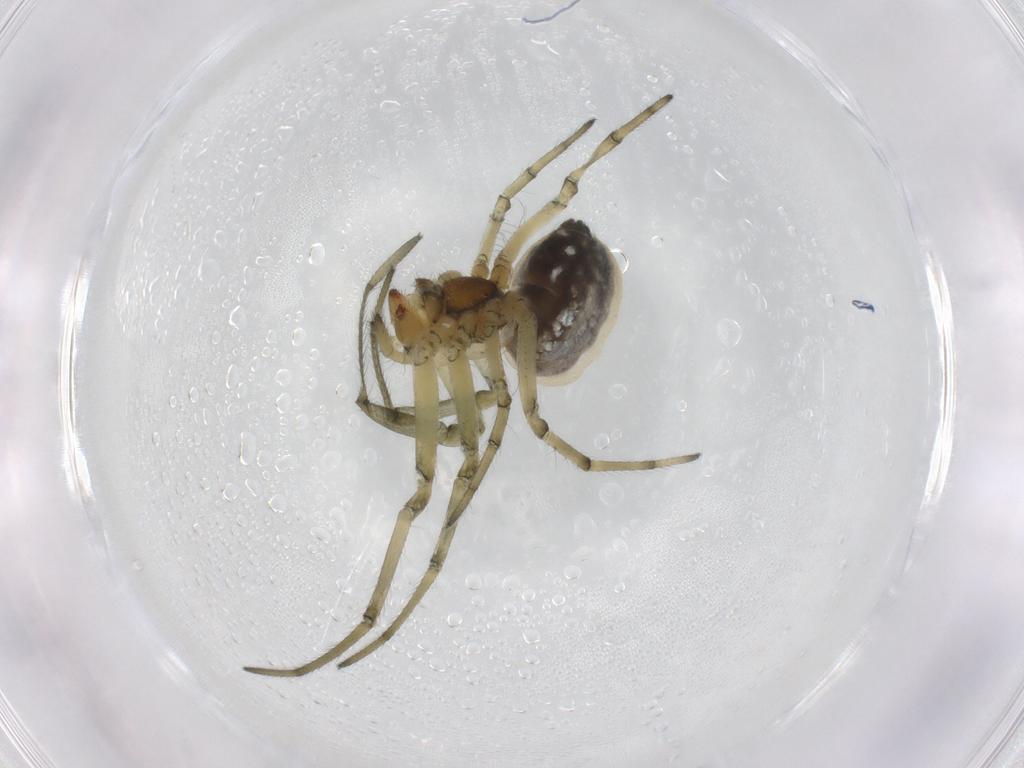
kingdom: Animalia
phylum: Arthropoda
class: Arachnida
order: Araneae
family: Tetragnathidae
